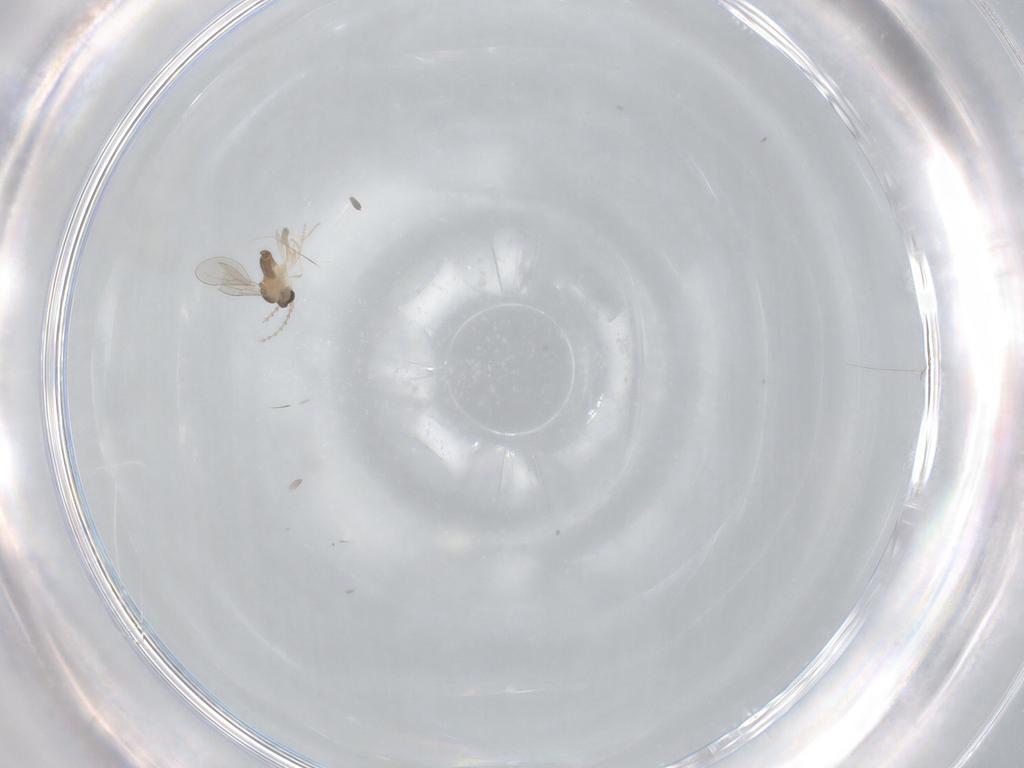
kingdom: Animalia
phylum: Arthropoda
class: Insecta
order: Diptera
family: Cecidomyiidae
